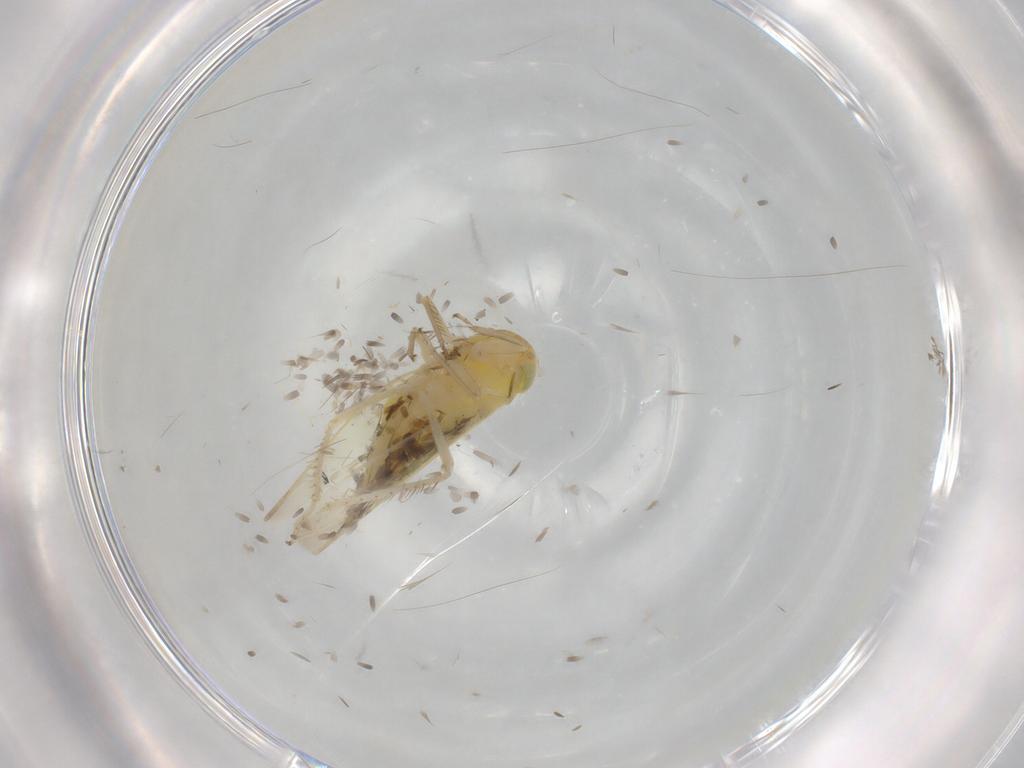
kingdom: Animalia
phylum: Arthropoda
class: Insecta
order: Hemiptera
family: Cicadellidae
